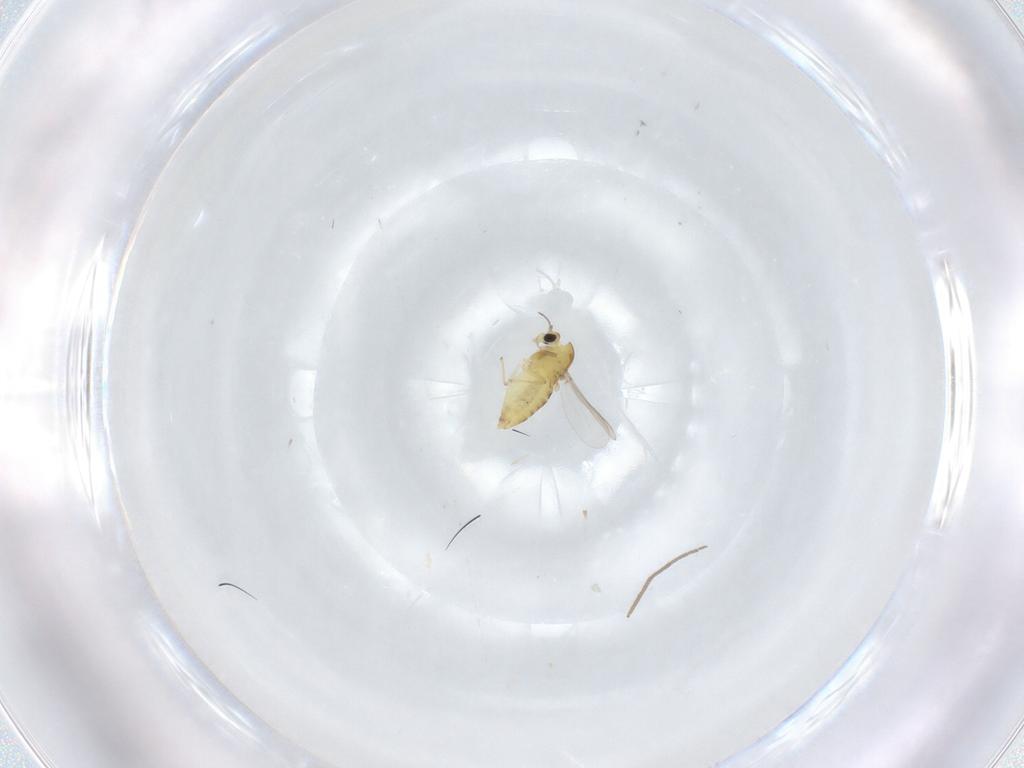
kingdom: Animalia
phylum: Arthropoda
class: Insecta
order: Diptera
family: Chironomidae
